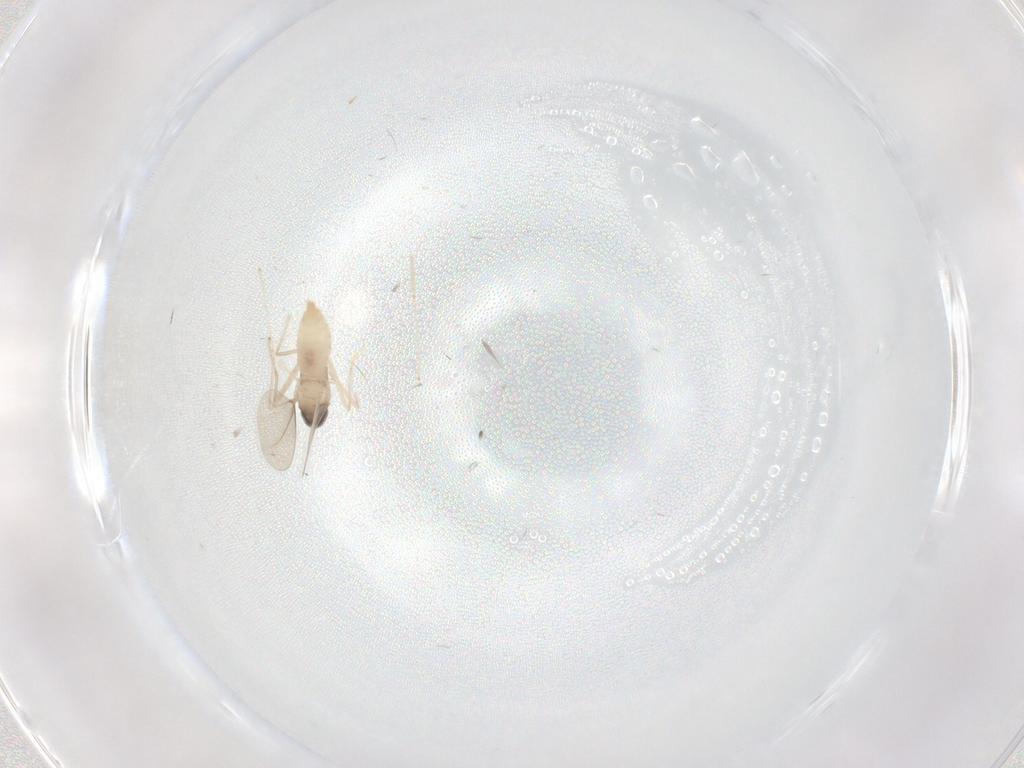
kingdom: Animalia
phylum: Arthropoda
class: Insecta
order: Diptera
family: Cecidomyiidae
